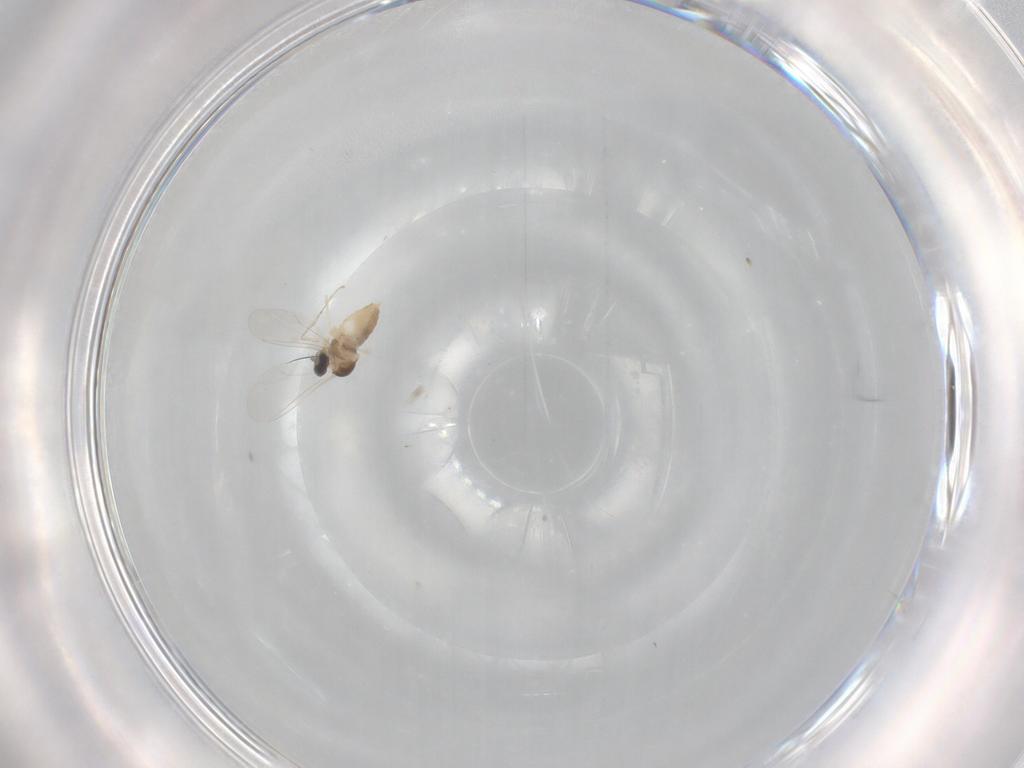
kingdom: Animalia
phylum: Arthropoda
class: Insecta
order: Diptera
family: Cecidomyiidae
